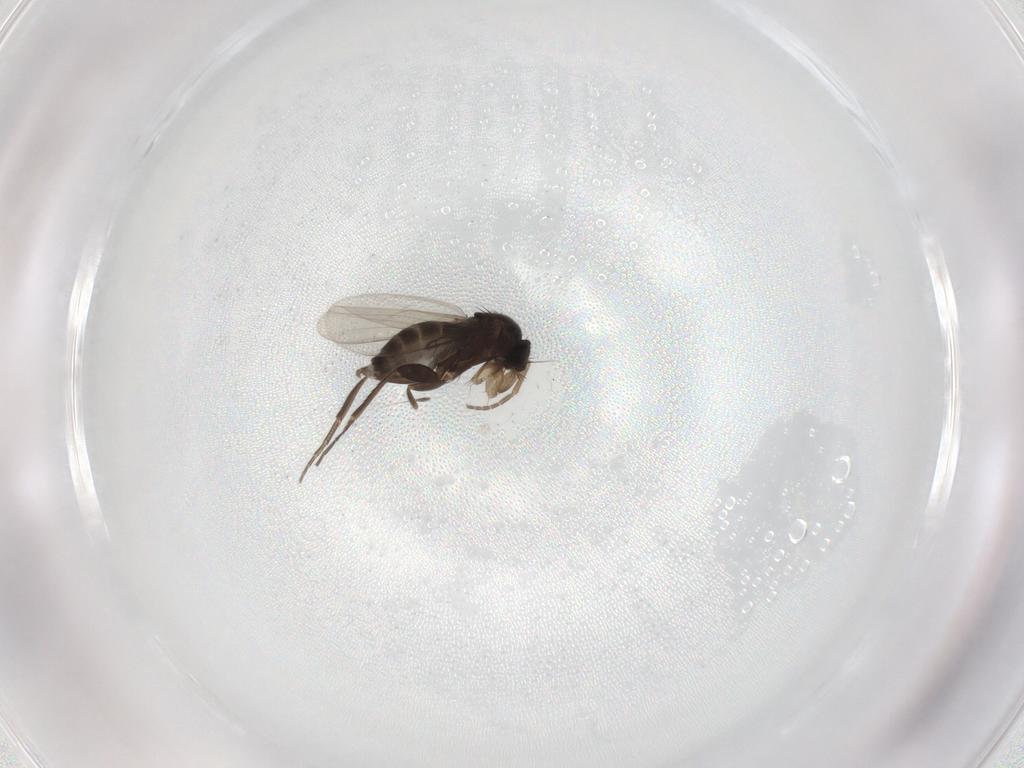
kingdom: Animalia
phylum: Arthropoda
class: Insecta
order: Diptera
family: Phoridae
